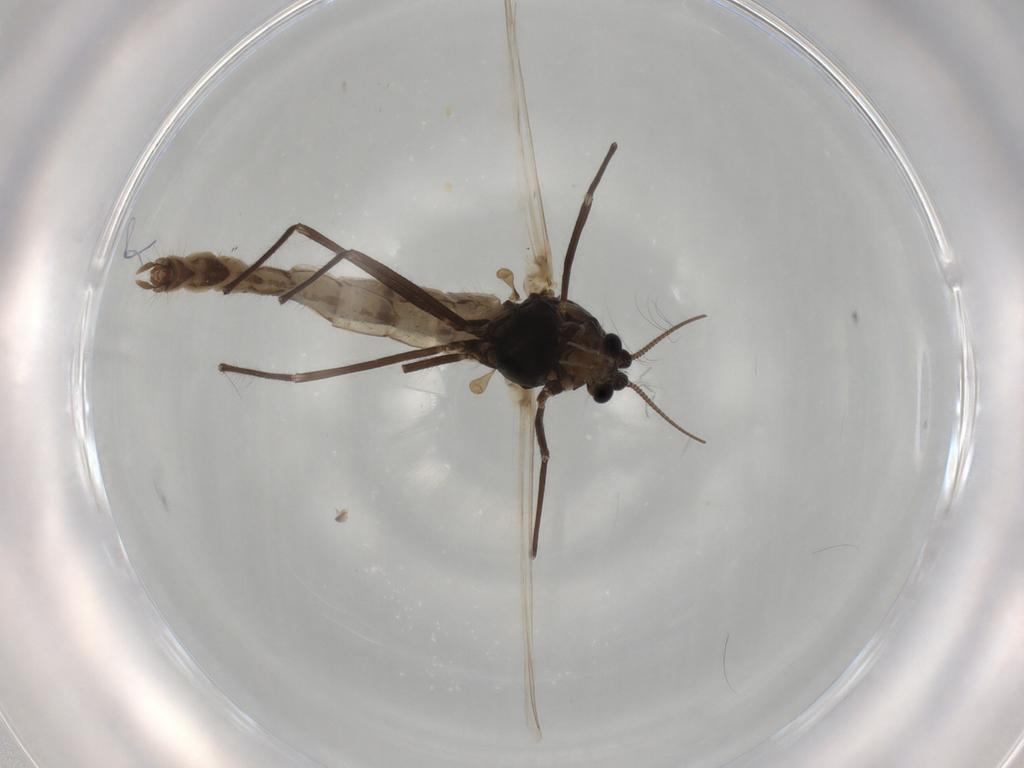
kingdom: Animalia
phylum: Arthropoda
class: Insecta
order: Diptera
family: Chironomidae
